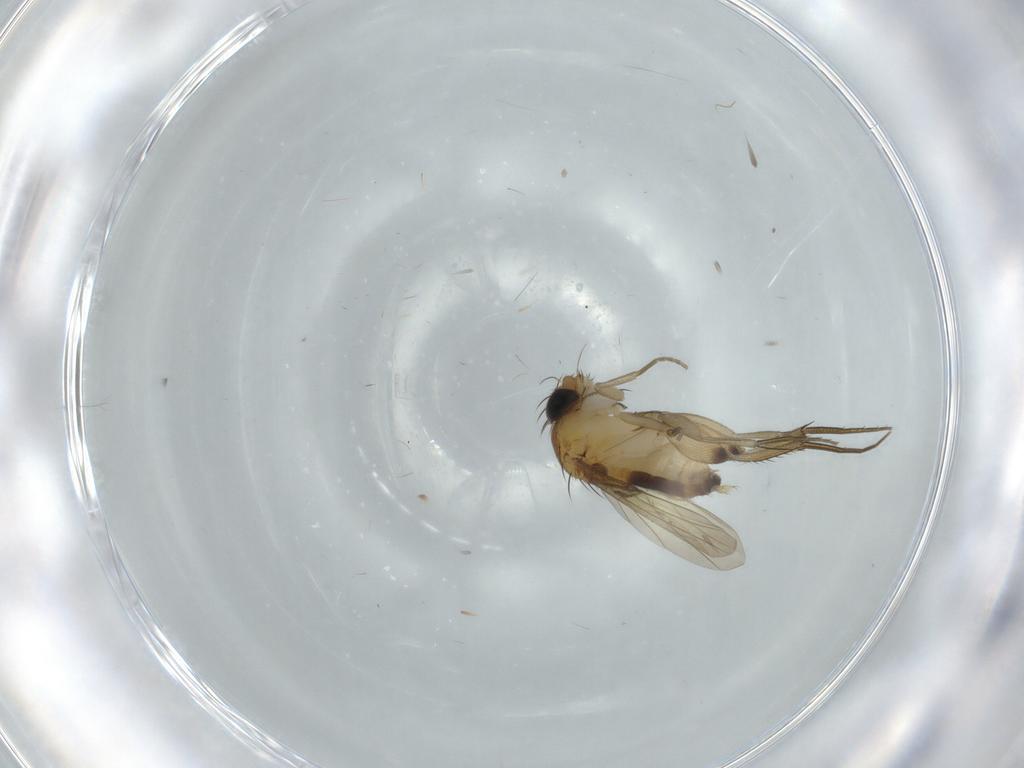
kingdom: Animalia
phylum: Arthropoda
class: Insecta
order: Diptera
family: Phoridae
